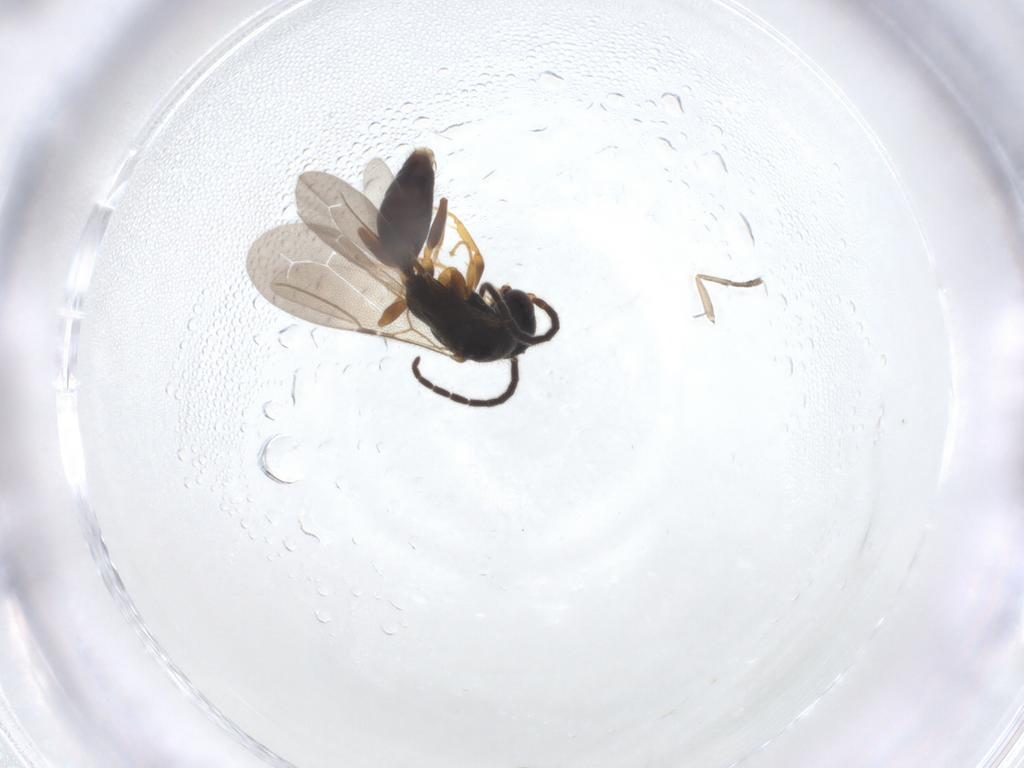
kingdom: Animalia
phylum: Arthropoda
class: Insecta
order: Hymenoptera
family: Bethylidae
